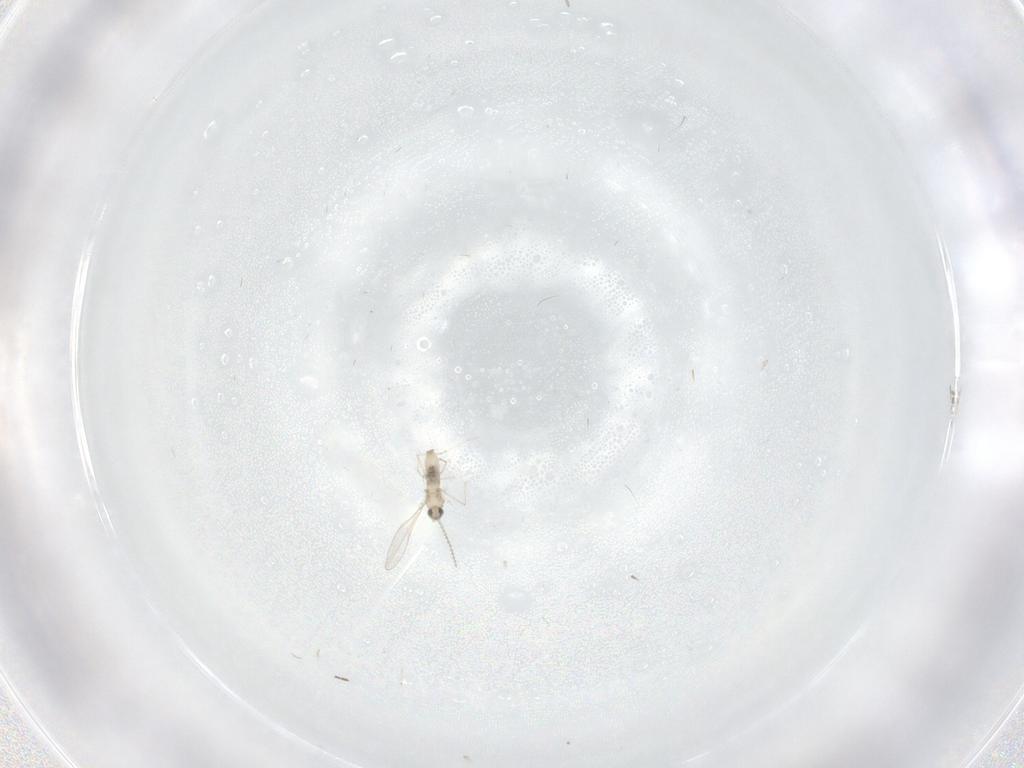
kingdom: Animalia
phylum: Arthropoda
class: Insecta
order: Diptera
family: Cecidomyiidae
